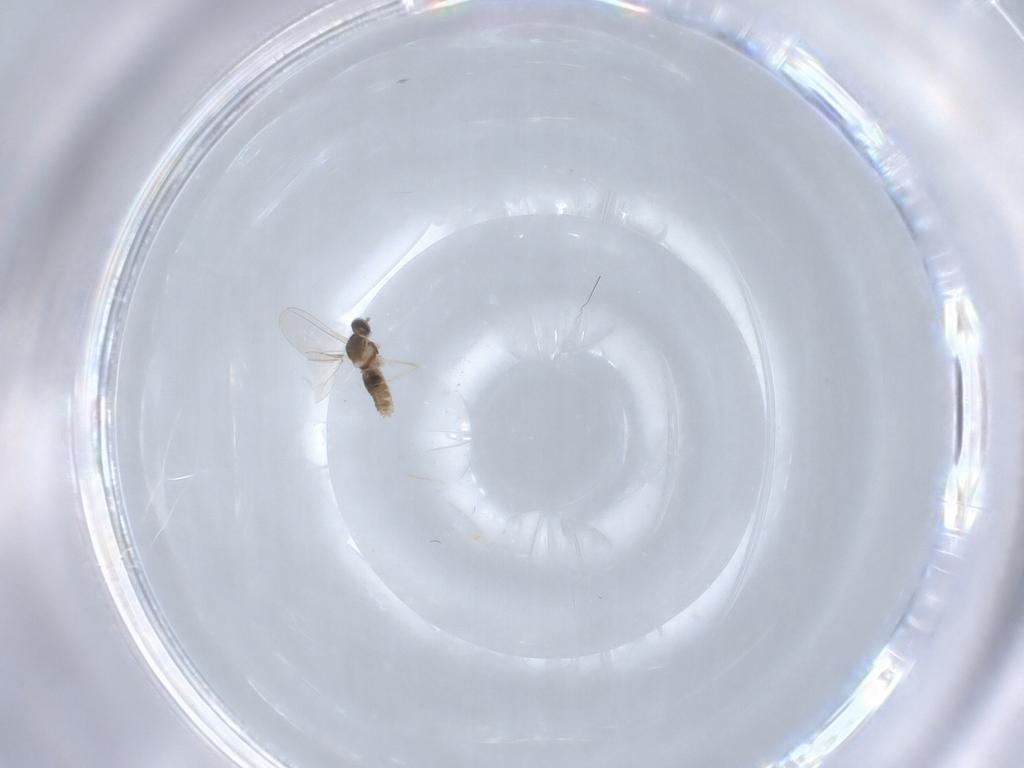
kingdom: Animalia
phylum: Arthropoda
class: Insecta
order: Diptera
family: Cecidomyiidae
